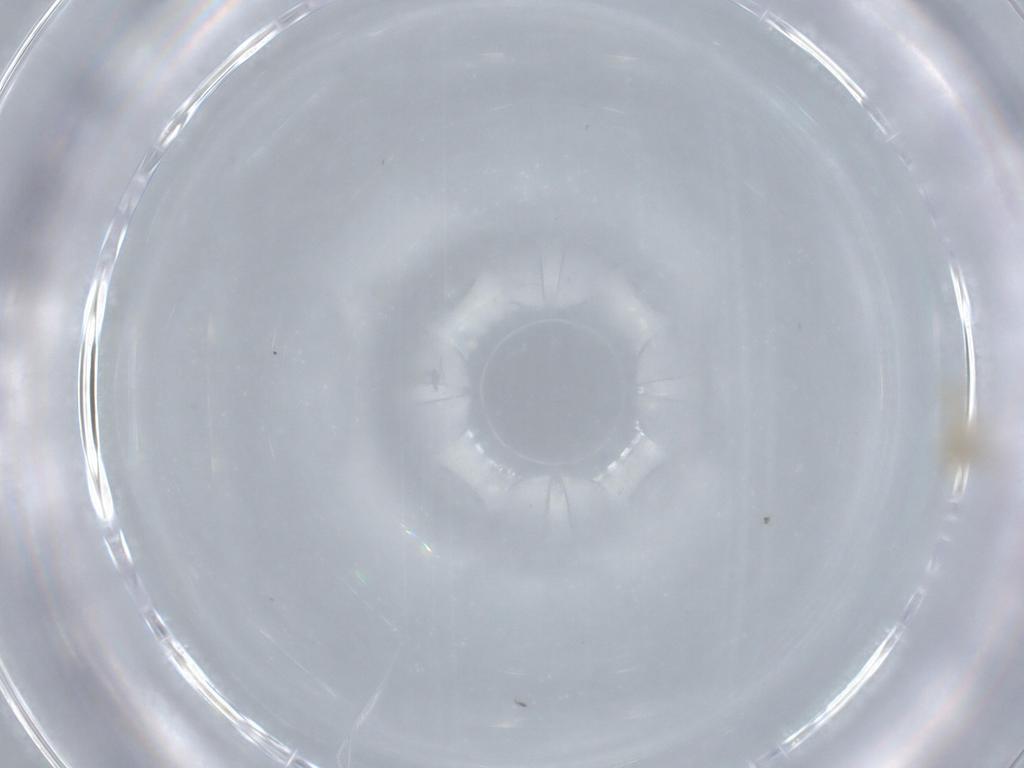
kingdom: Animalia
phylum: Arthropoda
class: Insecta
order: Diptera
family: Cecidomyiidae
